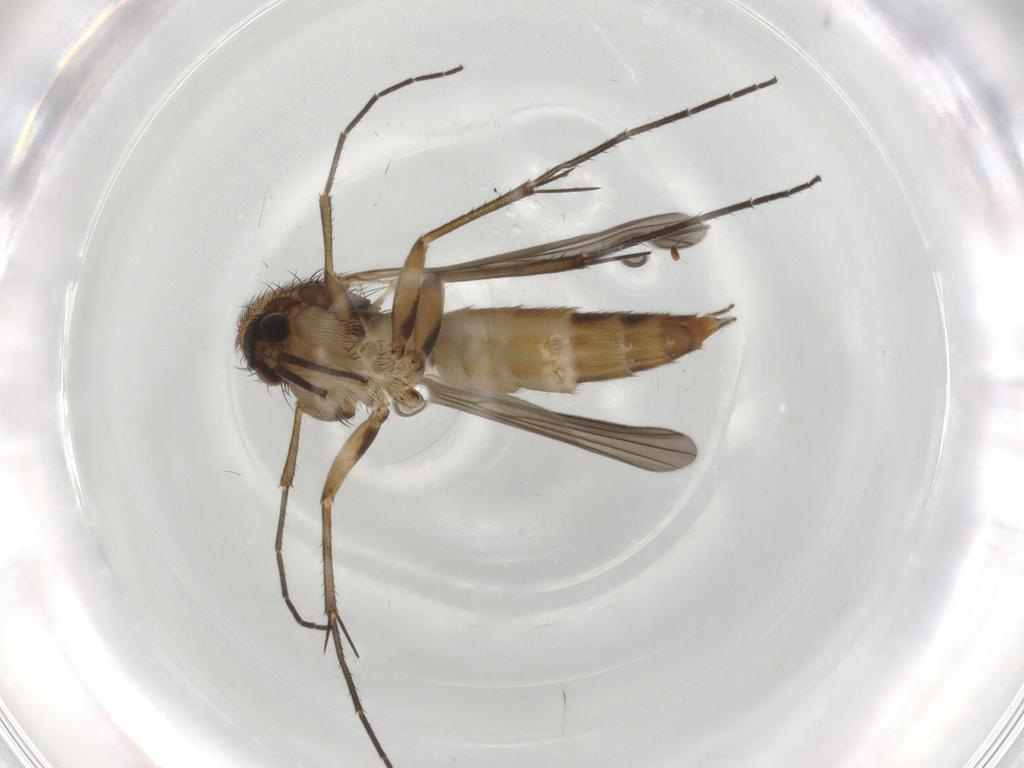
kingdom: Animalia
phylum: Arthropoda
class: Insecta
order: Diptera
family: Mycetophilidae
